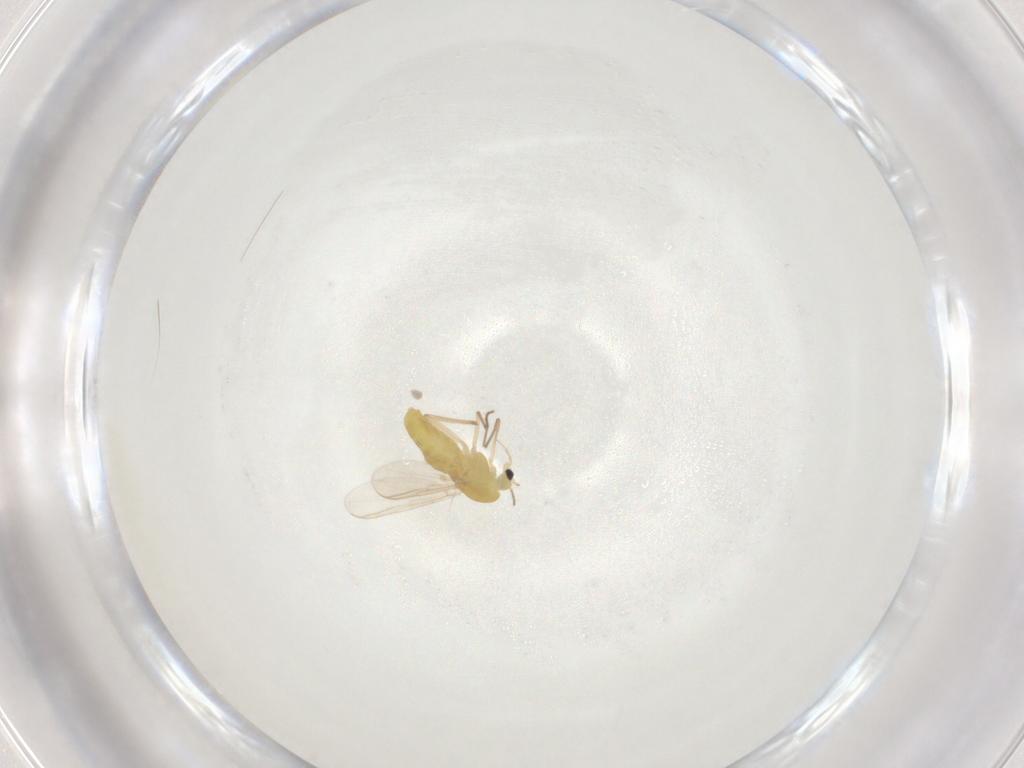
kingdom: Animalia
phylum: Arthropoda
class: Insecta
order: Diptera
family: Chironomidae
